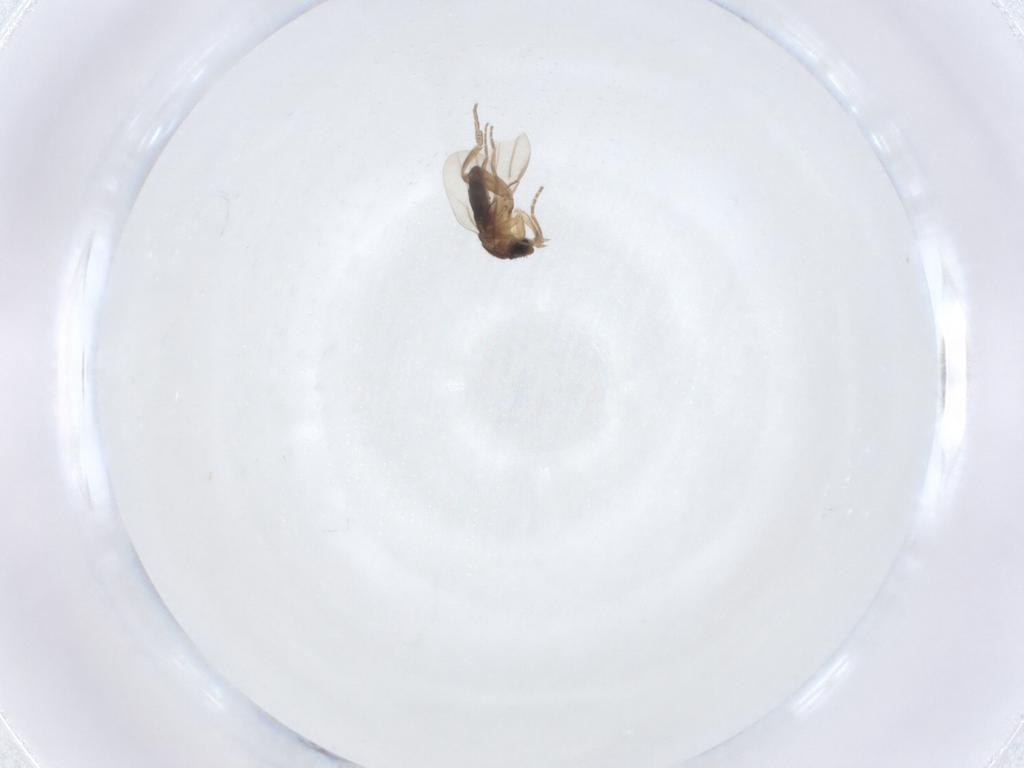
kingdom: Animalia
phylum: Arthropoda
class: Insecta
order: Diptera
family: Phoridae
